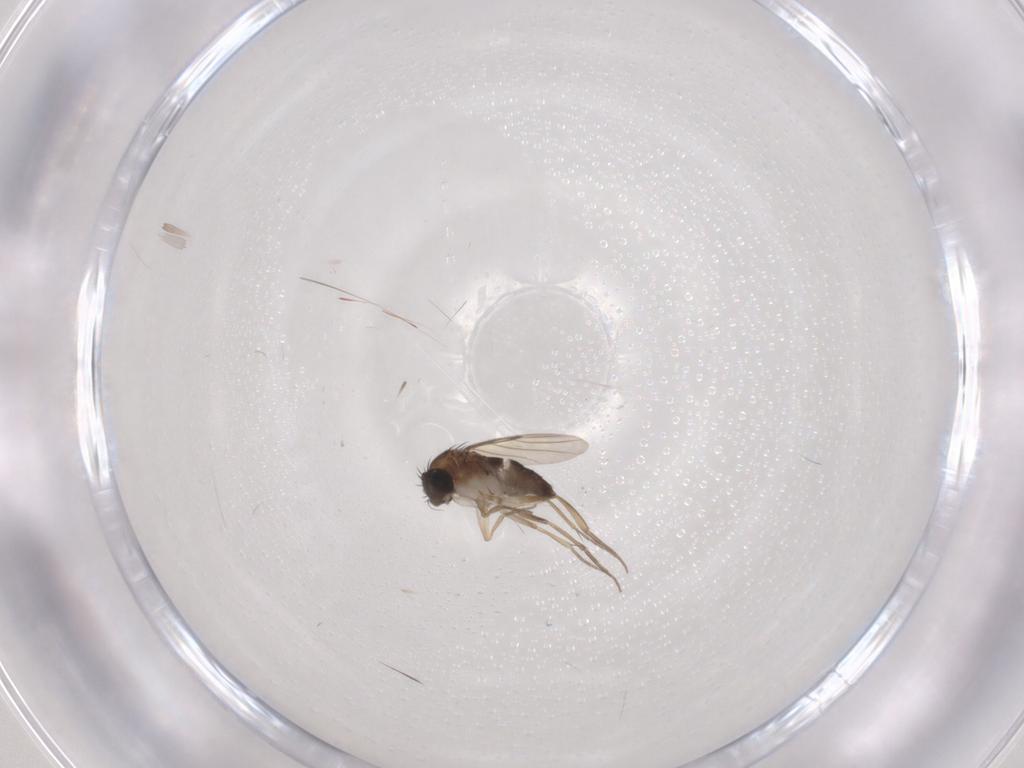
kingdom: Animalia
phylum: Arthropoda
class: Insecta
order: Diptera
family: Phoridae
